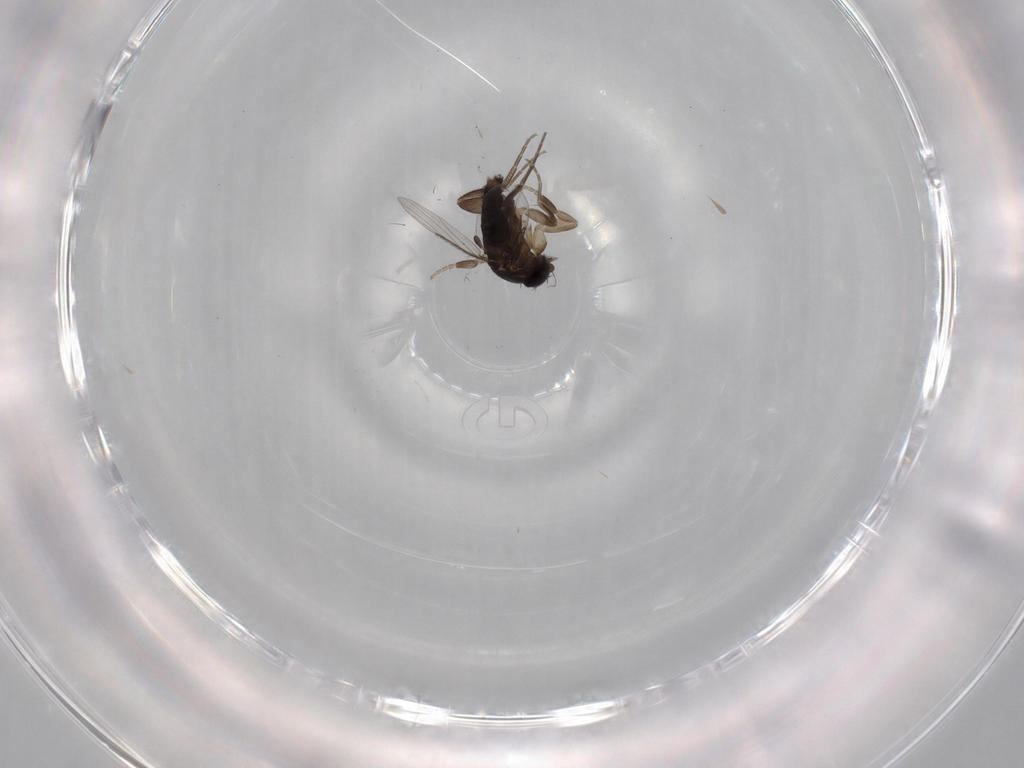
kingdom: Animalia
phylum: Arthropoda
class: Insecta
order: Diptera
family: Phoridae
